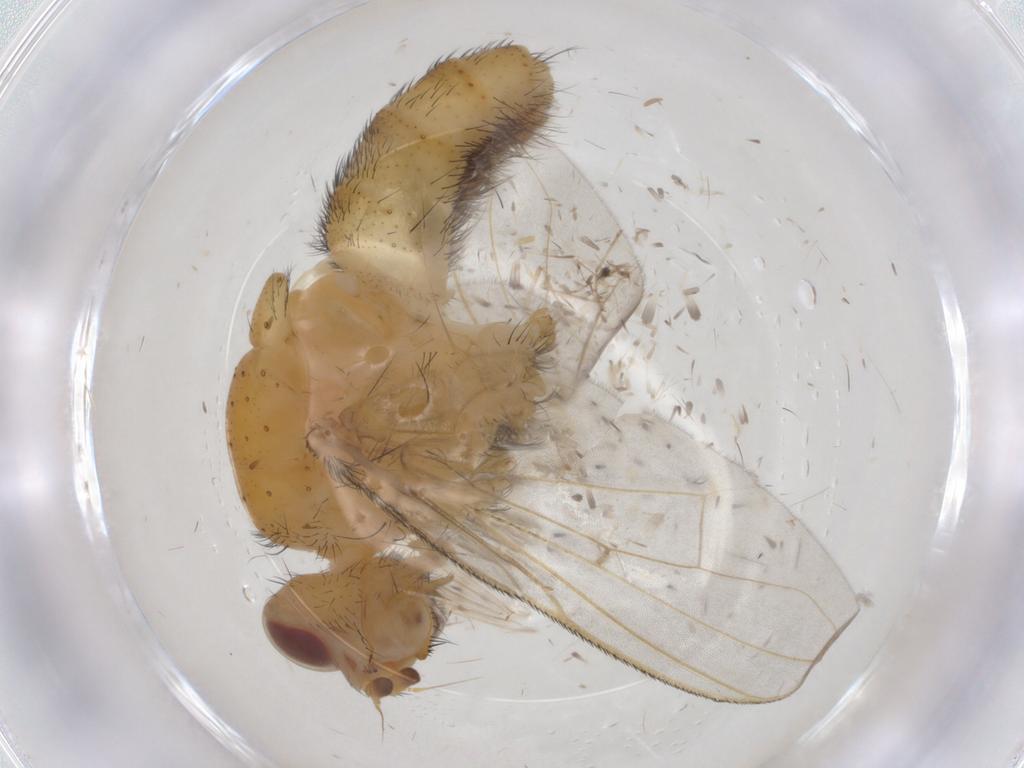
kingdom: Animalia
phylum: Arthropoda
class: Insecta
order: Diptera
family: Tachinidae
